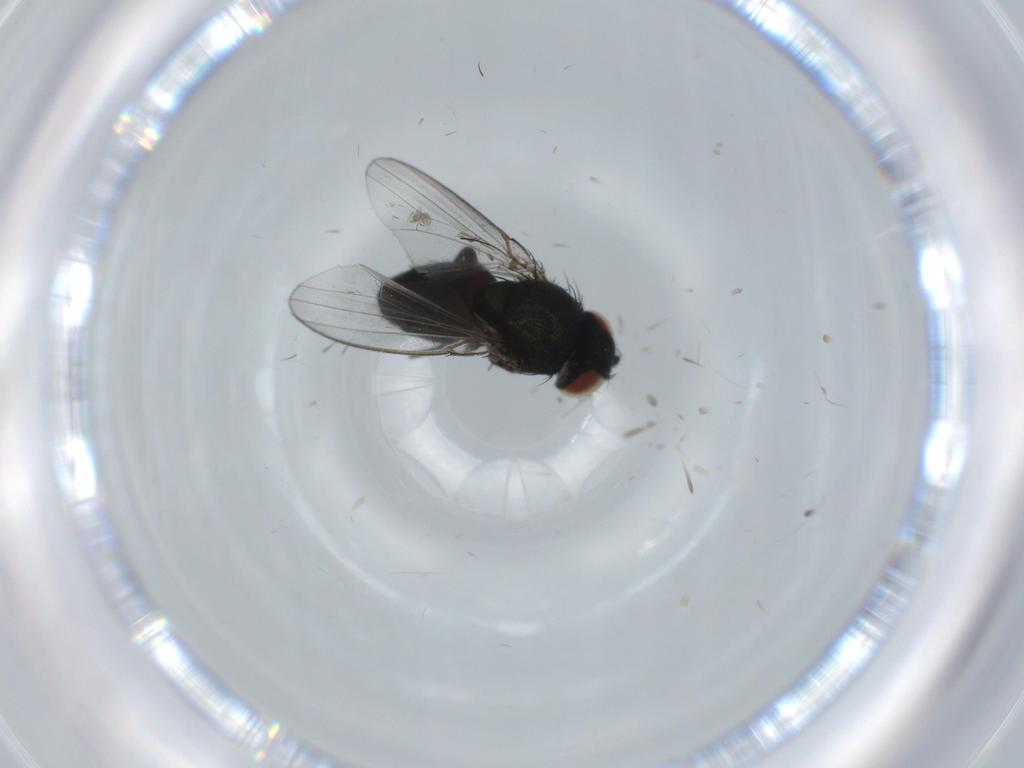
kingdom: Animalia
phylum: Arthropoda
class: Insecta
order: Diptera
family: Milichiidae
